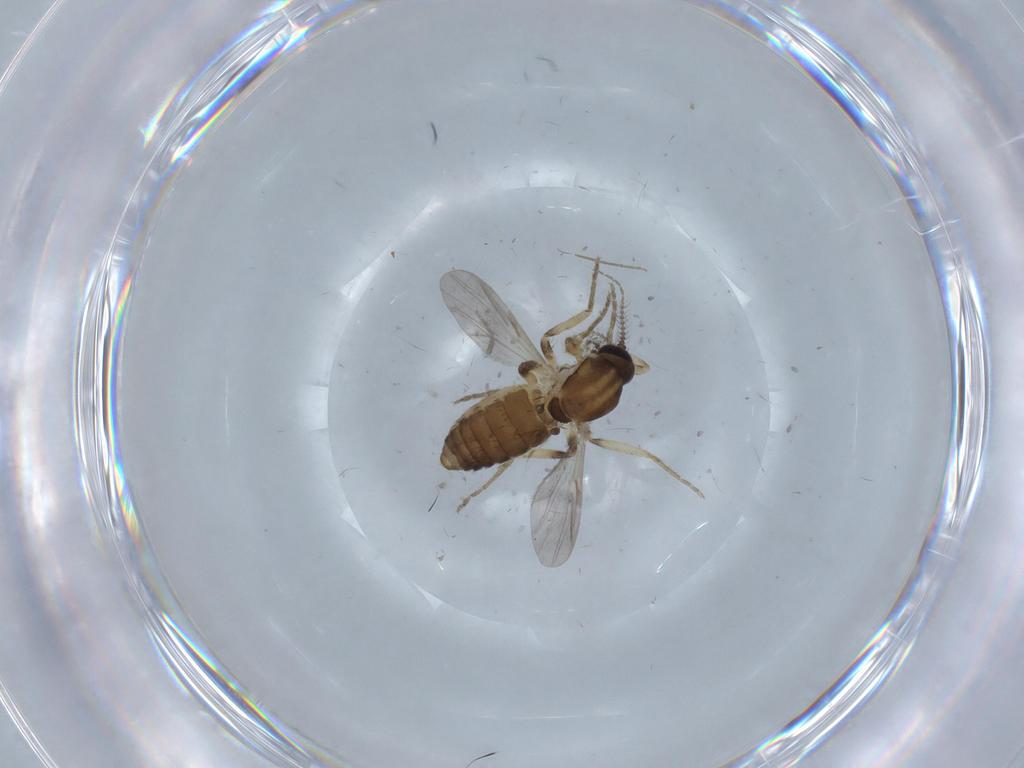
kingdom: Animalia
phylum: Arthropoda
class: Insecta
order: Diptera
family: Ceratopogonidae
